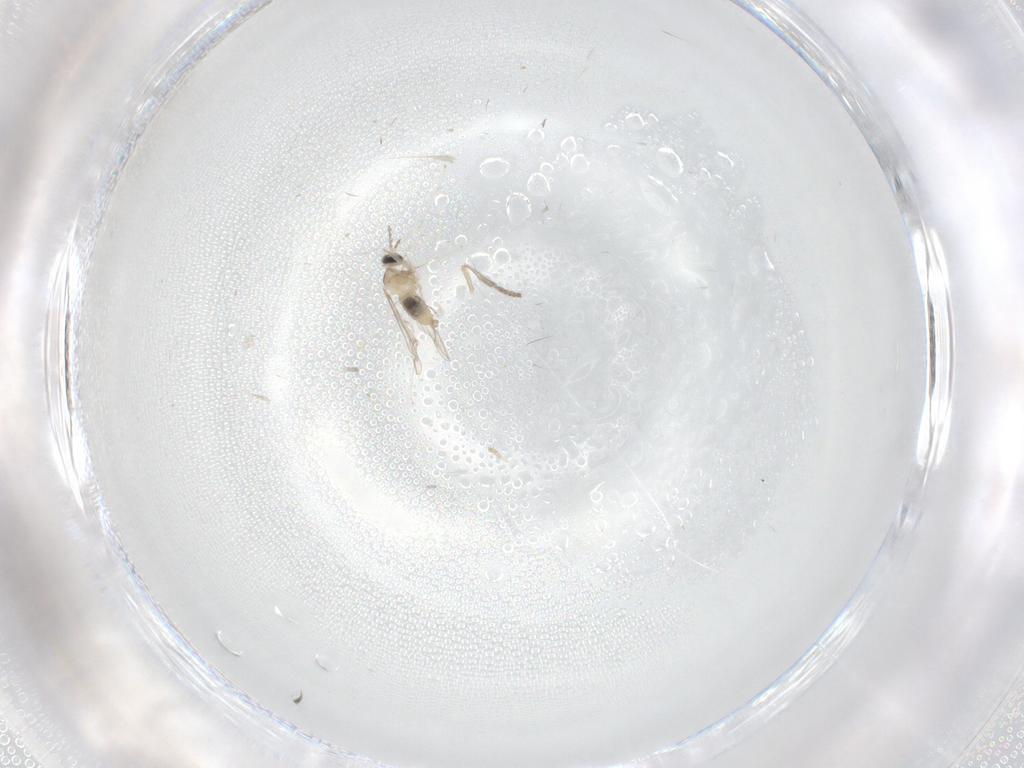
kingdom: Animalia
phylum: Arthropoda
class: Insecta
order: Diptera
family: Cecidomyiidae
